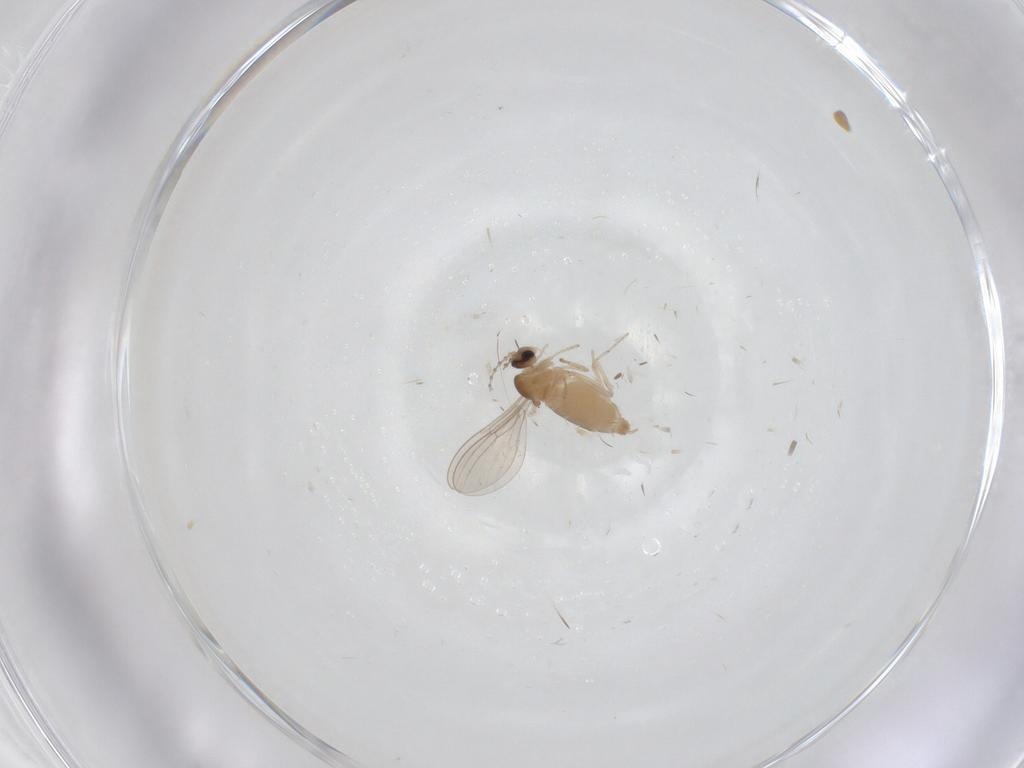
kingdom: Animalia
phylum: Arthropoda
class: Insecta
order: Diptera
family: Cecidomyiidae
